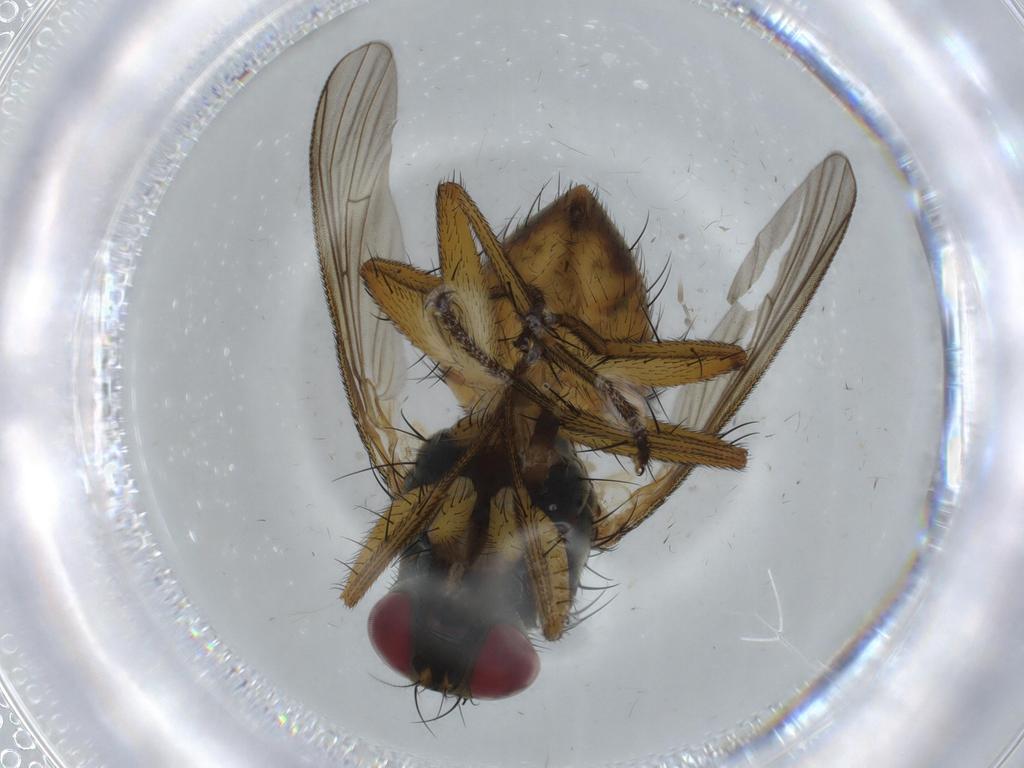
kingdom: Animalia
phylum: Arthropoda
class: Insecta
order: Diptera
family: Muscidae
